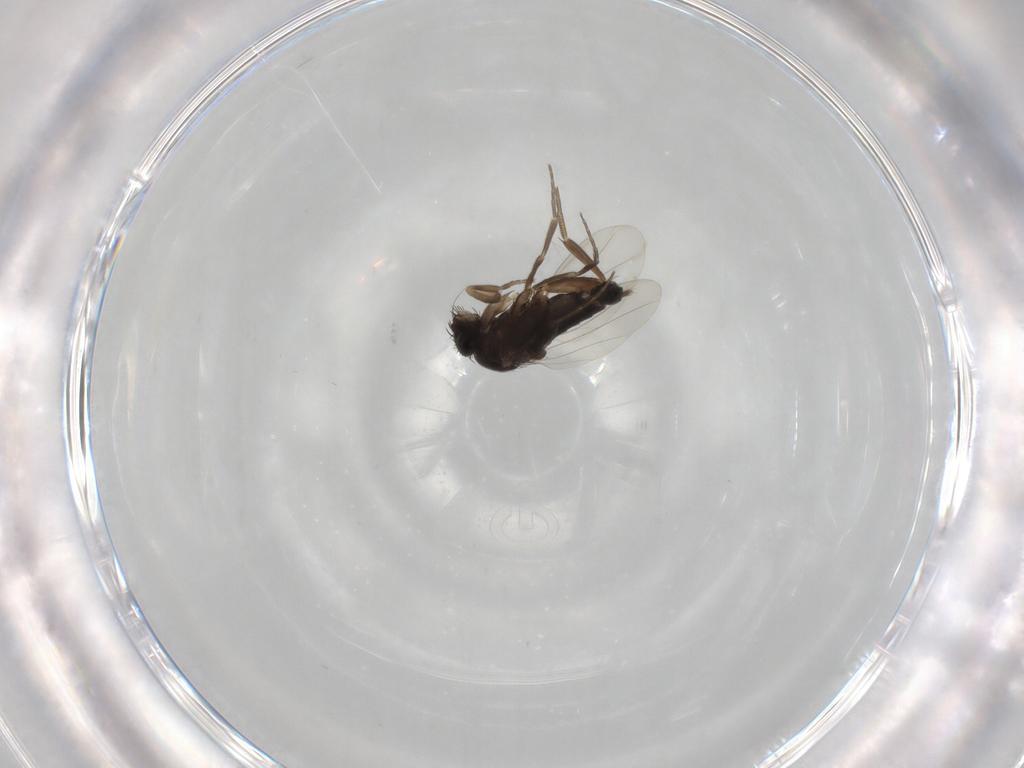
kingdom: Animalia
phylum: Arthropoda
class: Insecta
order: Diptera
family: Phoridae
